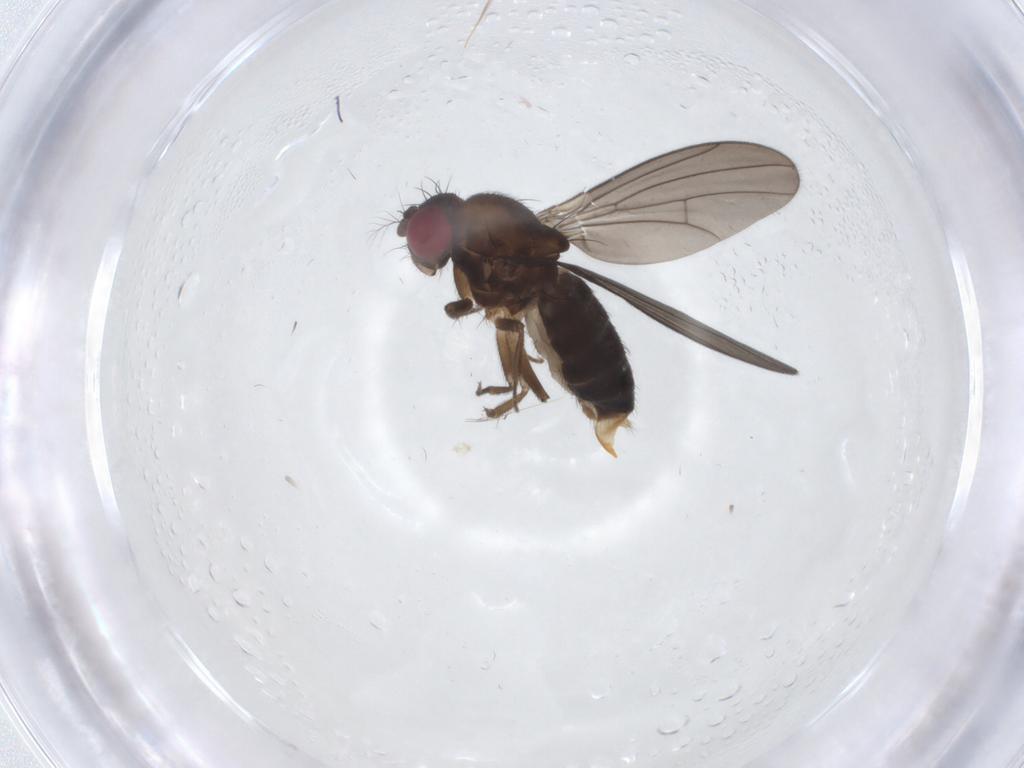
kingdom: Animalia
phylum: Arthropoda
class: Insecta
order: Diptera
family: Drosophilidae
